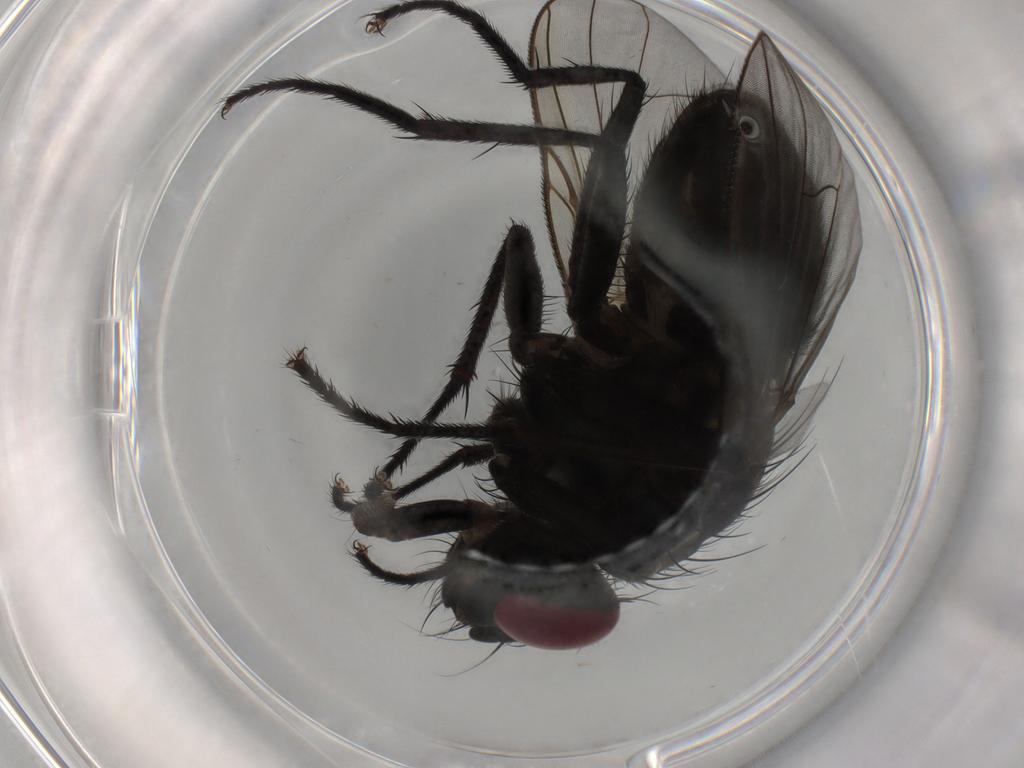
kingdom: Animalia
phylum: Arthropoda
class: Insecta
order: Diptera
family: Muscidae
